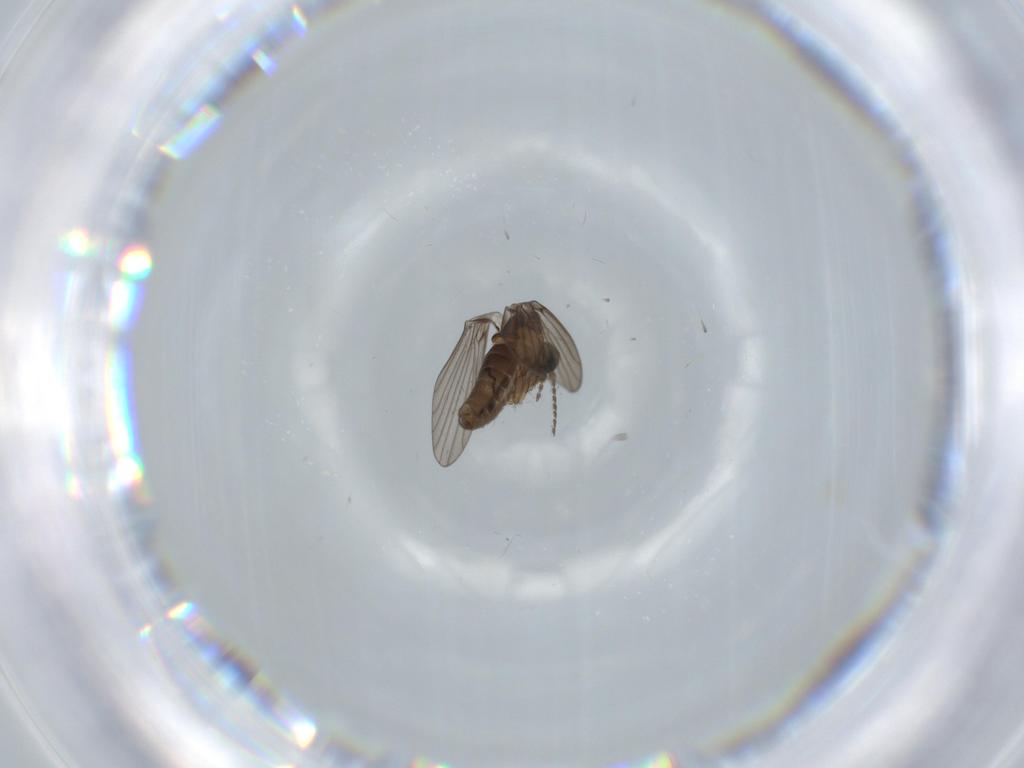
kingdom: Animalia
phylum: Arthropoda
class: Insecta
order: Diptera
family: Psychodidae
